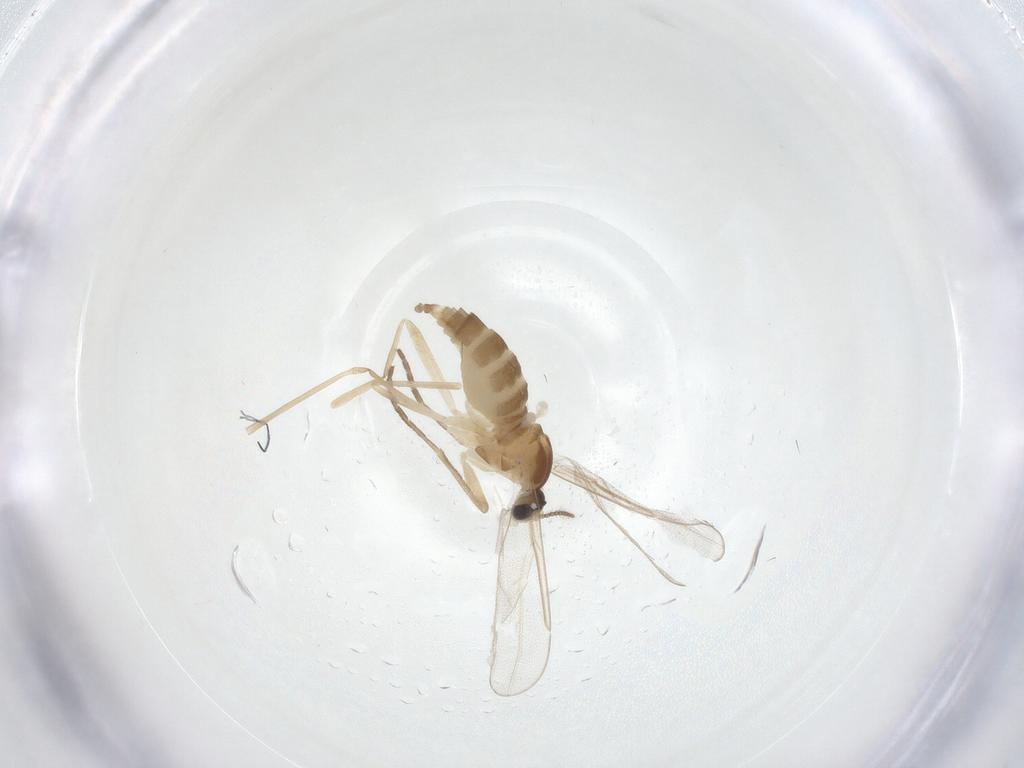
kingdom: Animalia
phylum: Arthropoda
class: Insecta
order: Diptera
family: Cecidomyiidae
